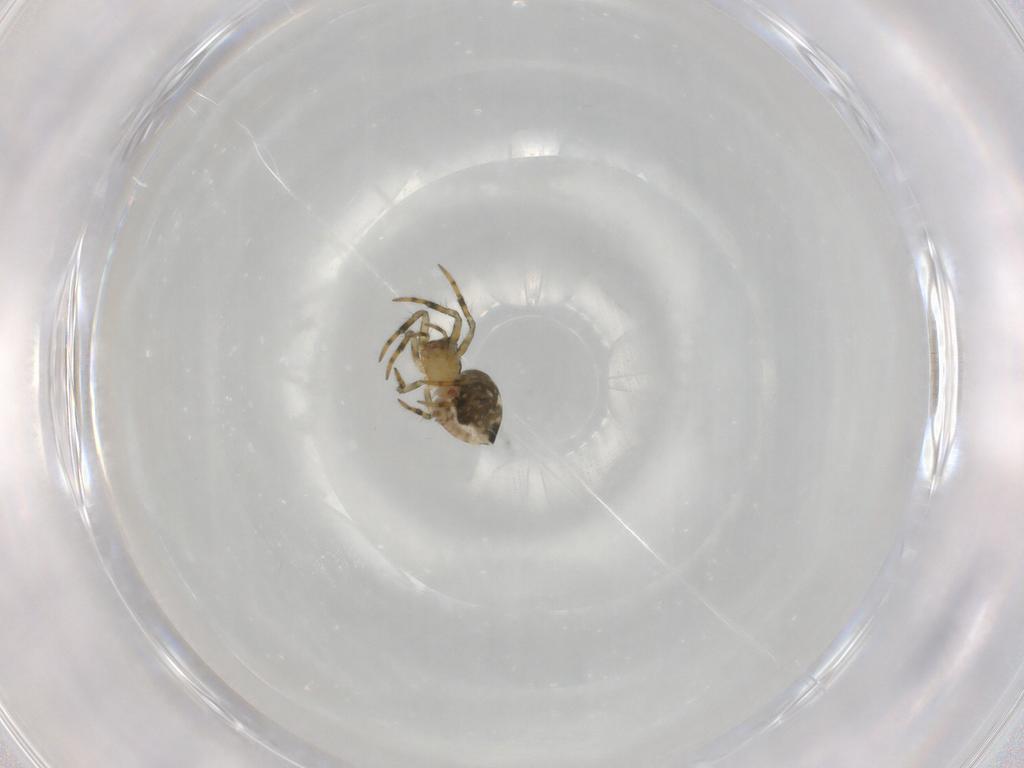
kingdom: Animalia
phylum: Arthropoda
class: Arachnida
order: Araneae
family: Mysmenidae
